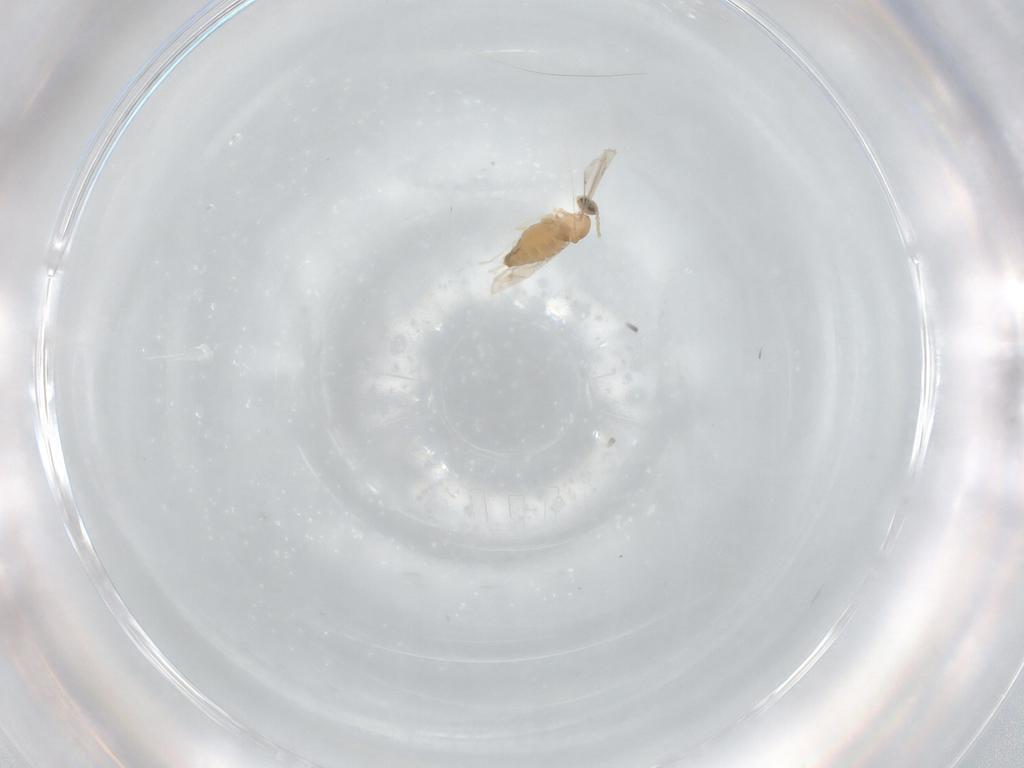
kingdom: Animalia
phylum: Arthropoda
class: Insecta
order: Diptera
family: Cecidomyiidae
